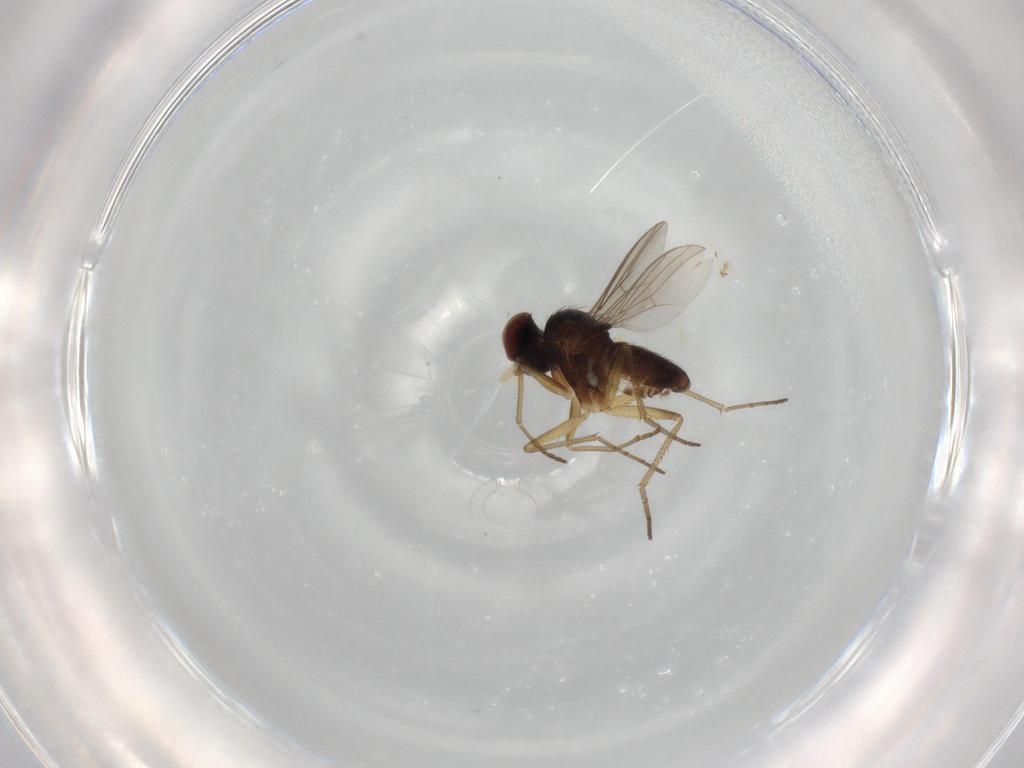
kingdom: Animalia
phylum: Arthropoda
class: Insecta
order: Diptera
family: Dolichopodidae
